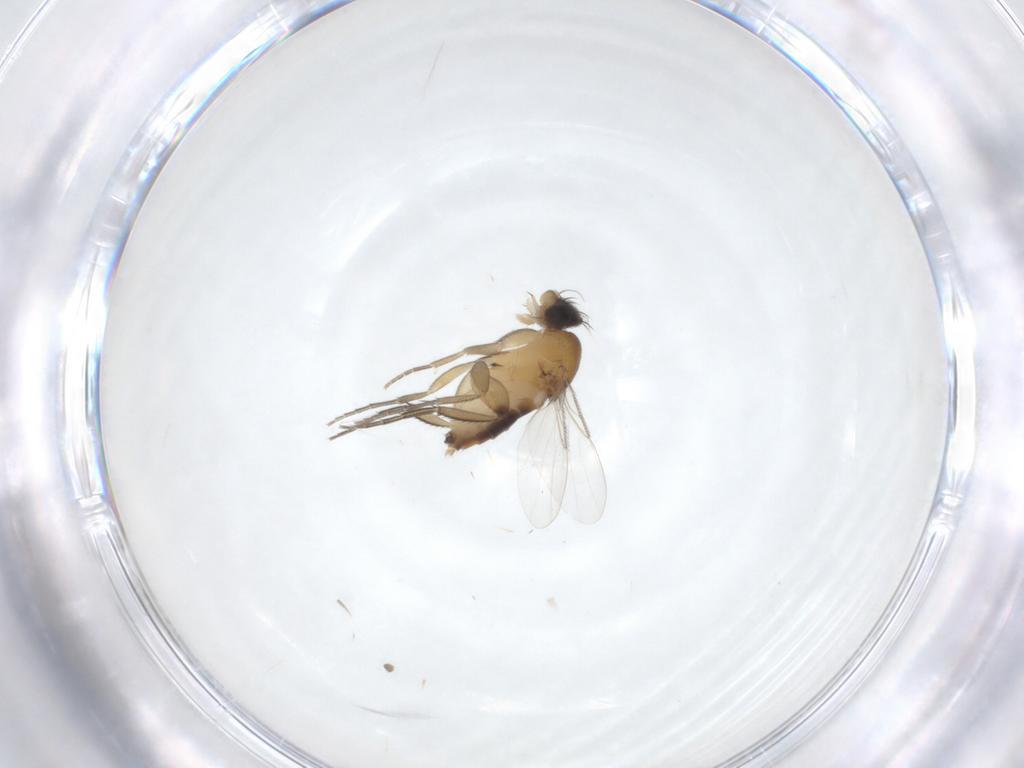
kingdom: Animalia
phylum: Arthropoda
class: Insecta
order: Diptera
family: Phoridae
